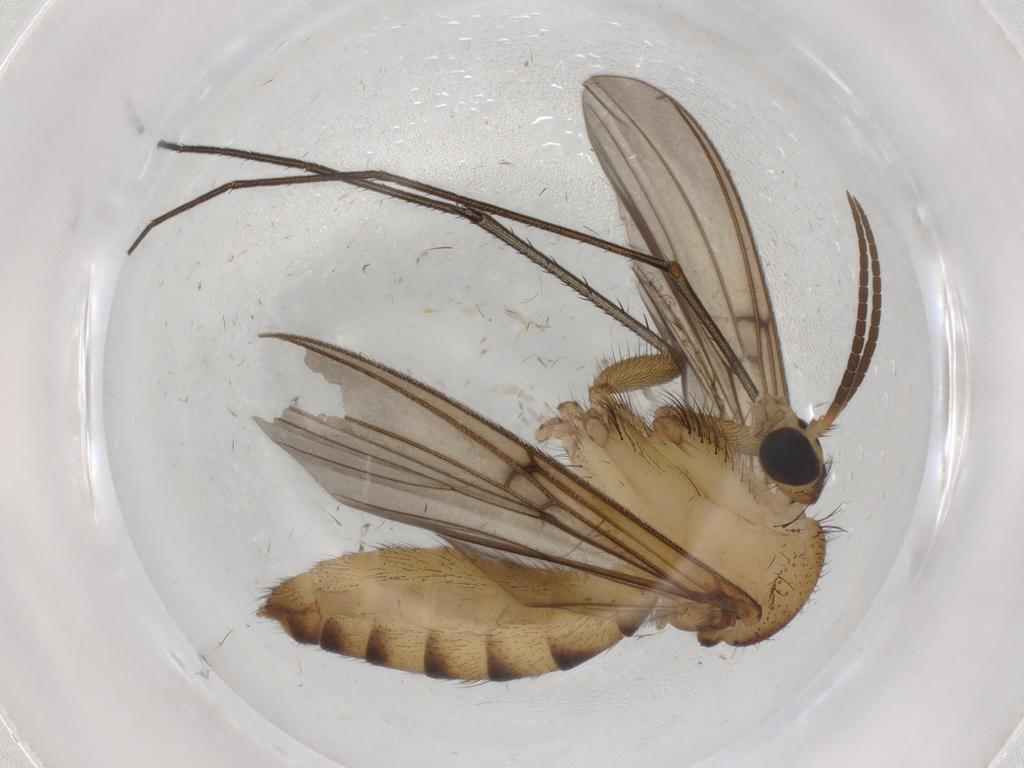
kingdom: Animalia
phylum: Arthropoda
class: Insecta
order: Diptera
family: Mycetophilidae
